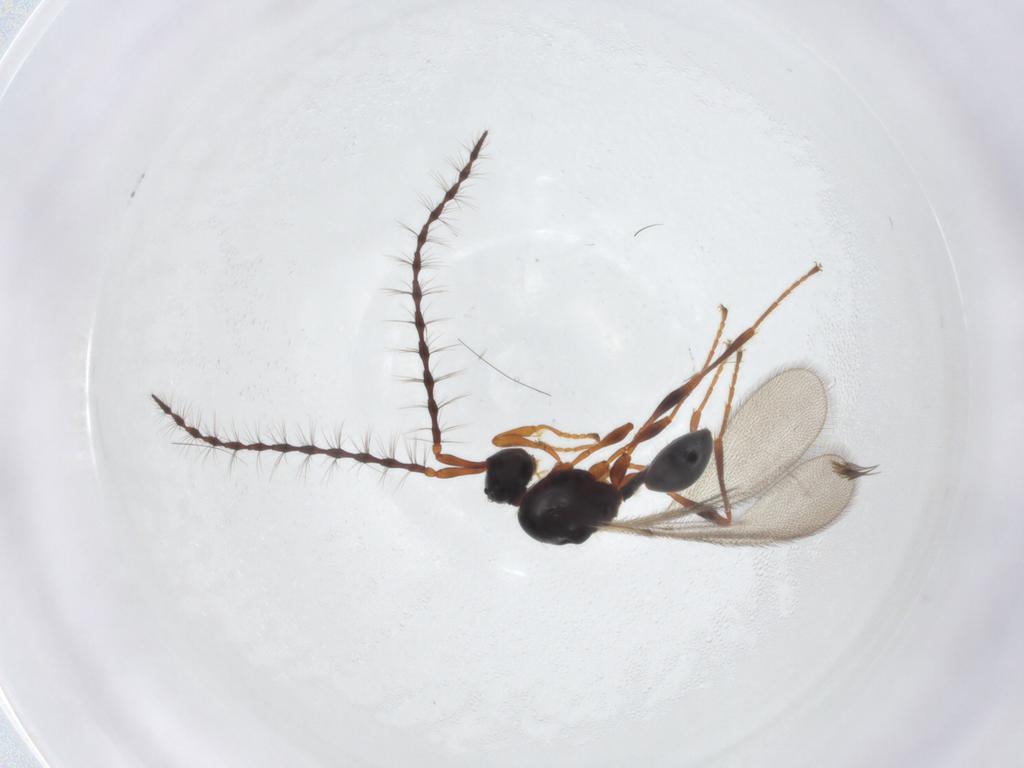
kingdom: Animalia
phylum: Arthropoda
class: Insecta
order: Hymenoptera
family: Diapriidae
